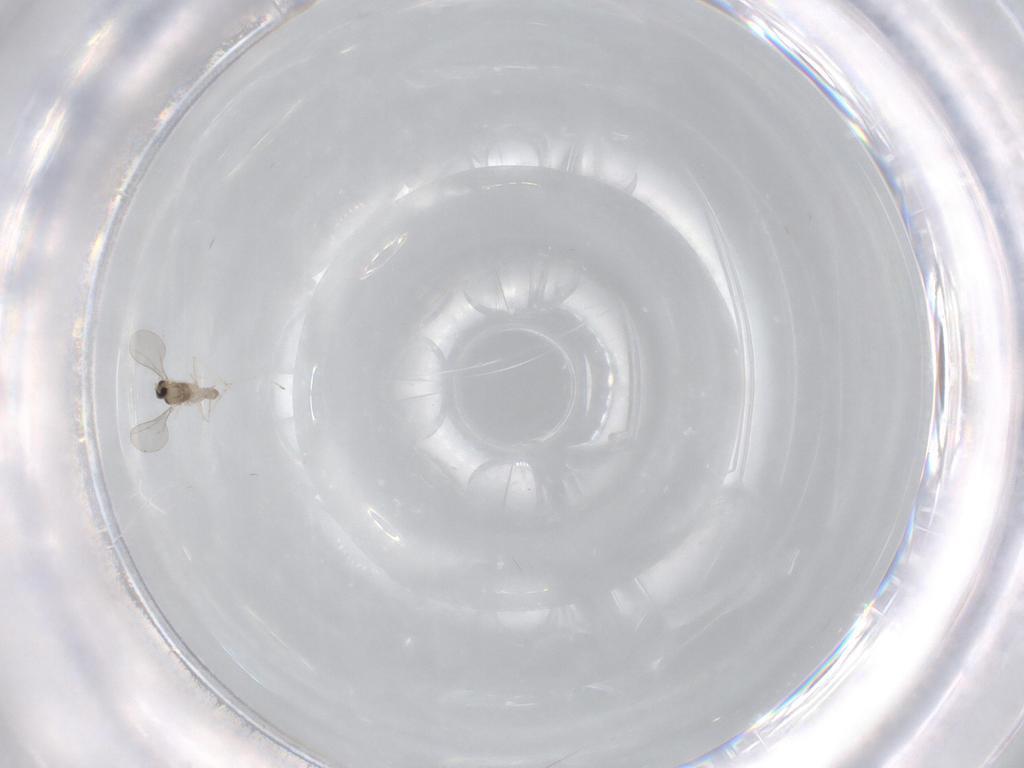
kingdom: Animalia
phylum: Arthropoda
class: Insecta
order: Diptera
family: Cecidomyiidae
